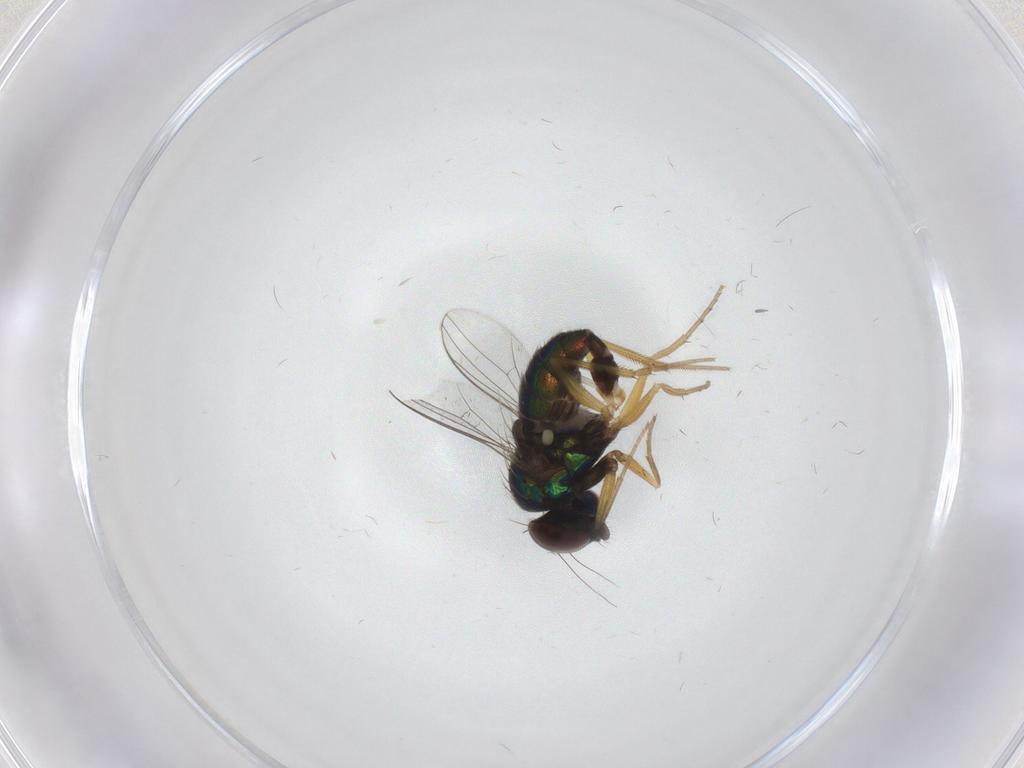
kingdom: Animalia
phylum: Arthropoda
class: Insecta
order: Diptera
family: Dolichopodidae
